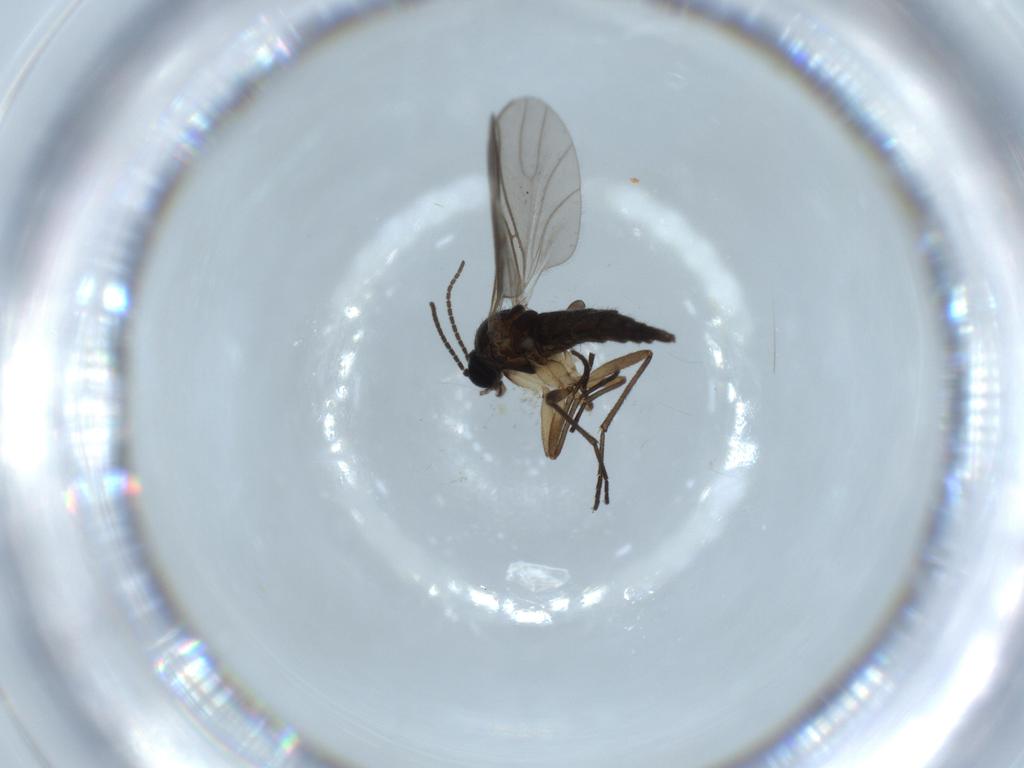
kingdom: Animalia
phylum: Arthropoda
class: Insecta
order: Diptera
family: Sciaridae
